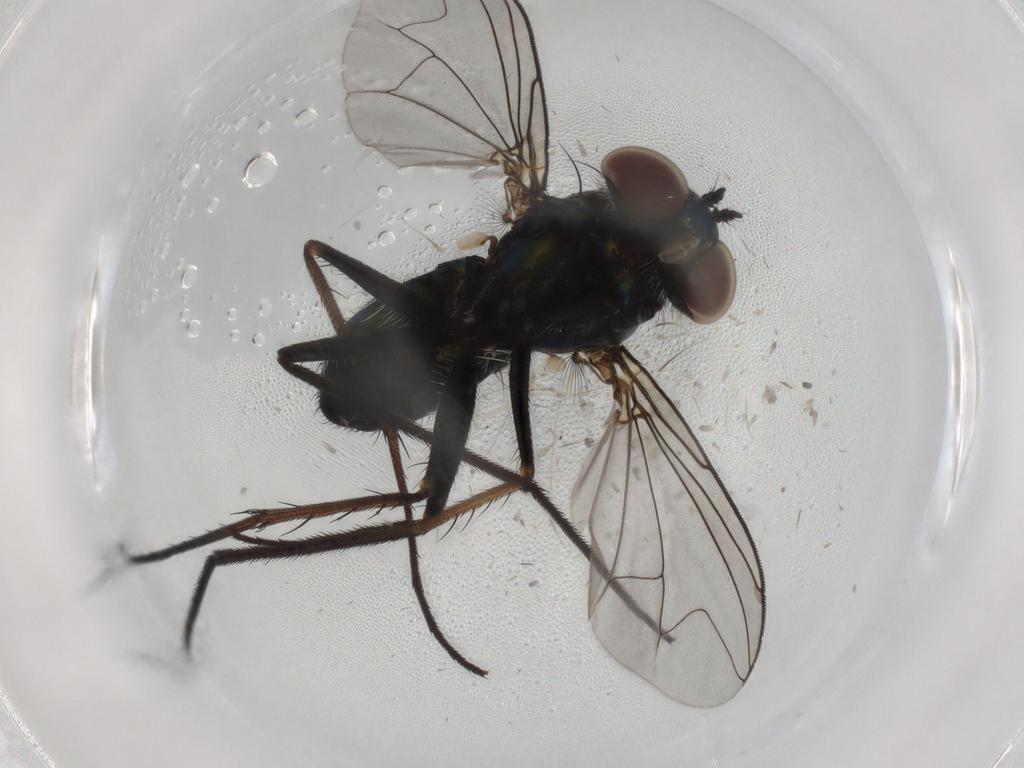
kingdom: Animalia
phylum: Arthropoda
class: Insecta
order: Diptera
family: Dolichopodidae
